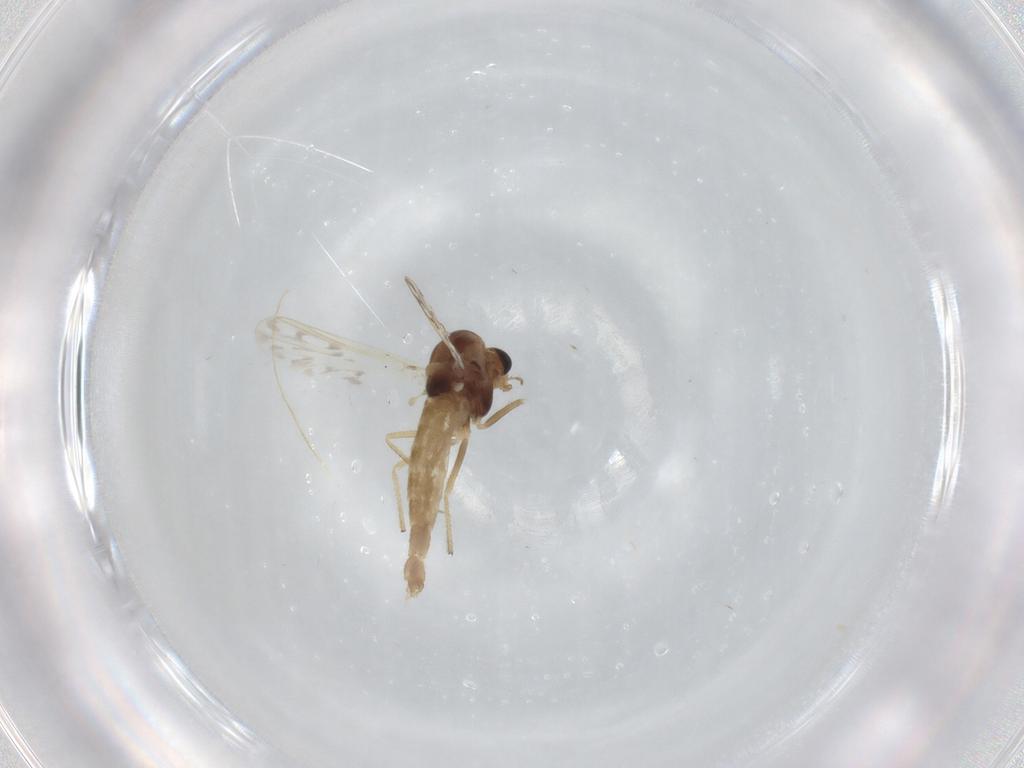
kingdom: Animalia
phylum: Arthropoda
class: Insecta
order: Diptera
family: Chironomidae
